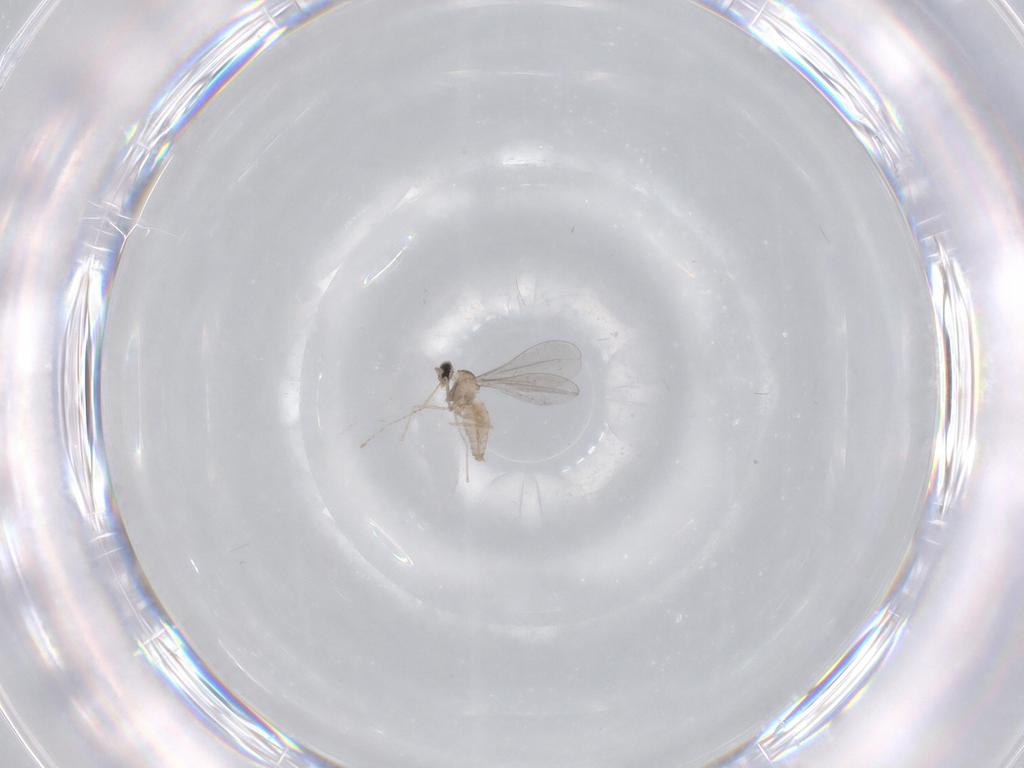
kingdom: Animalia
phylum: Arthropoda
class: Insecta
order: Diptera
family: Cecidomyiidae
